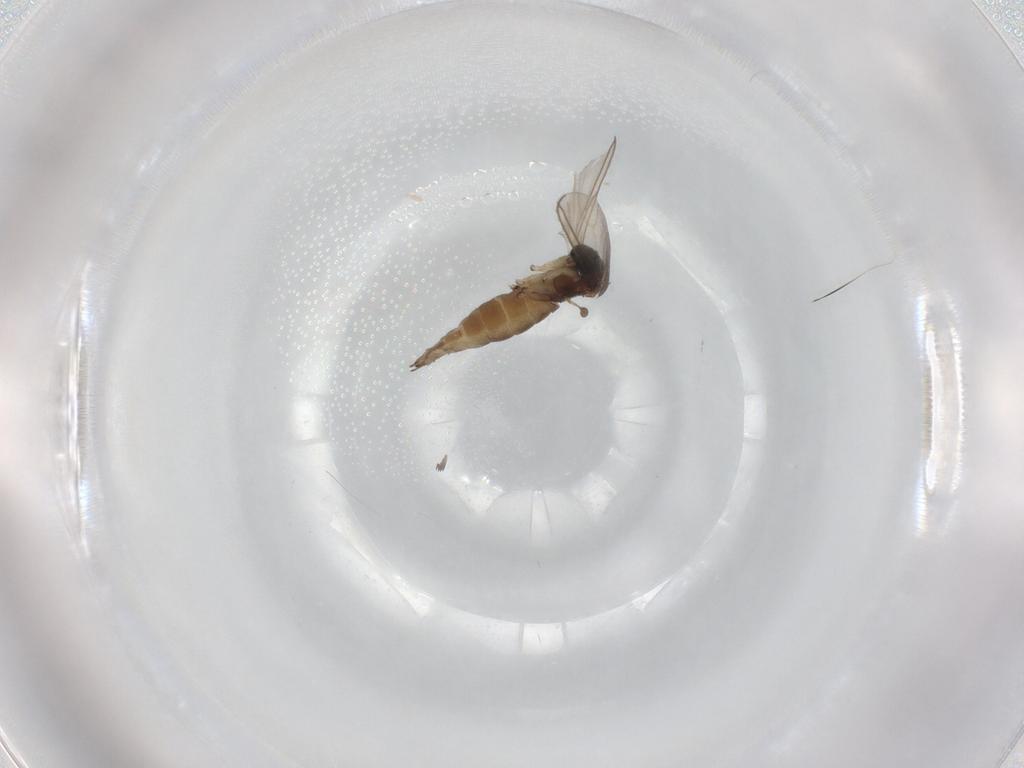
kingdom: Animalia
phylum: Arthropoda
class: Insecta
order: Diptera
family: Sciaridae
